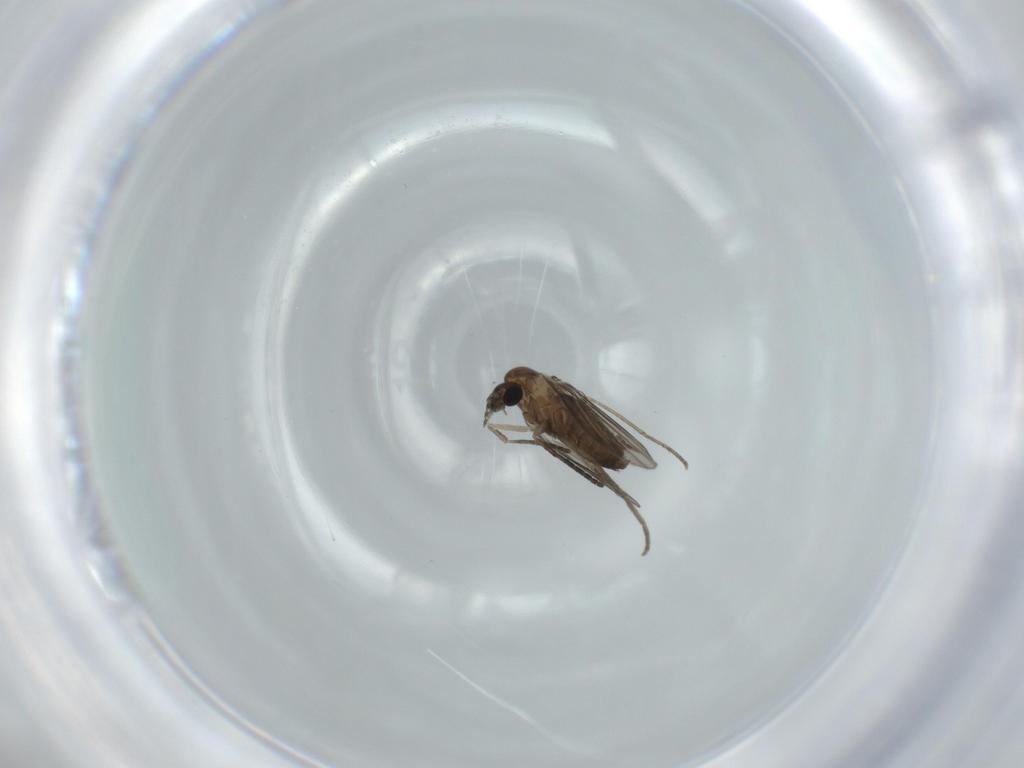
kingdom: Animalia
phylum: Arthropoda
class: Insecta
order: Diptera
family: Psychodidae
